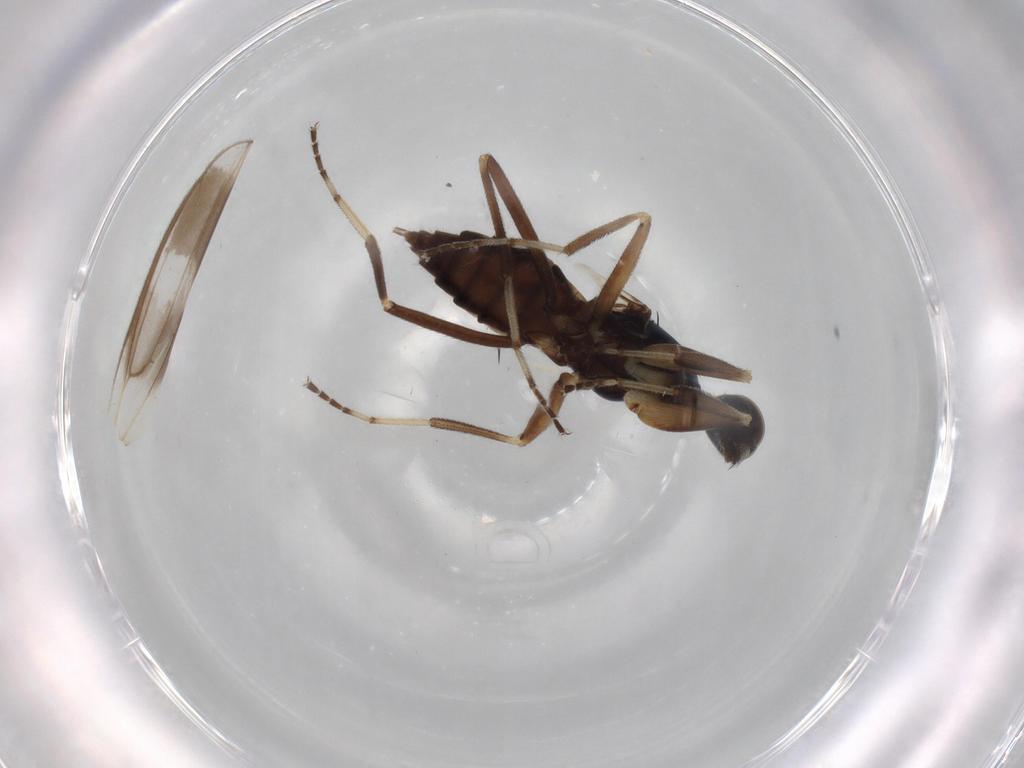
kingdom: Animalia
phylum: Arthropoda
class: Insecta
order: Diptera
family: Hybotidae
